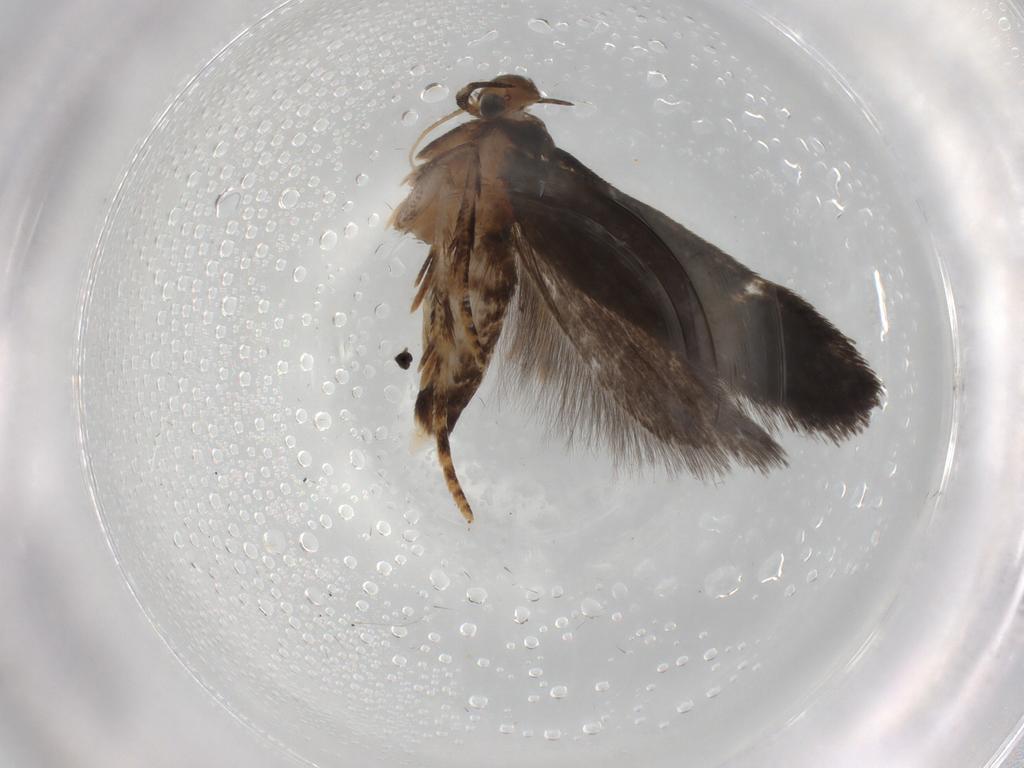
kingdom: Animalia
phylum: Arthropoda
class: Insecta
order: Lepidoptera
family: Gelechiidae
